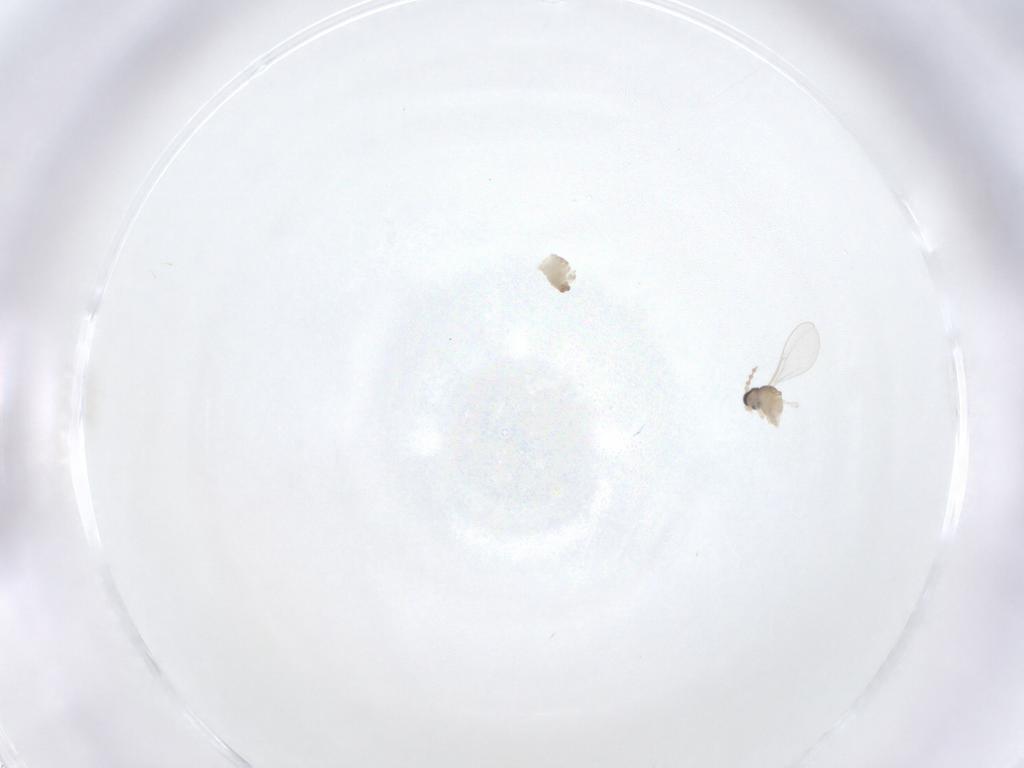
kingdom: Animalia
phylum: Arthropoda
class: Insecta
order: Diptera
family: Cecidomyiidae
